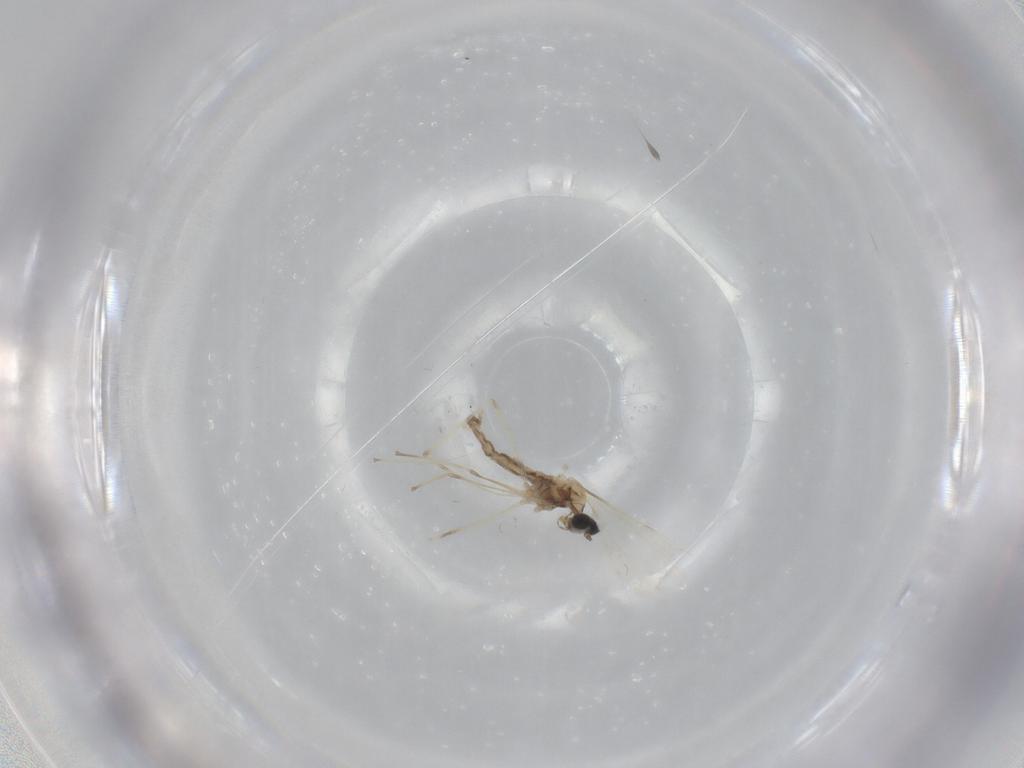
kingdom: Animalia
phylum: Arthropoda
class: Insecta
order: Diptera
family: Cecidomyiidae
